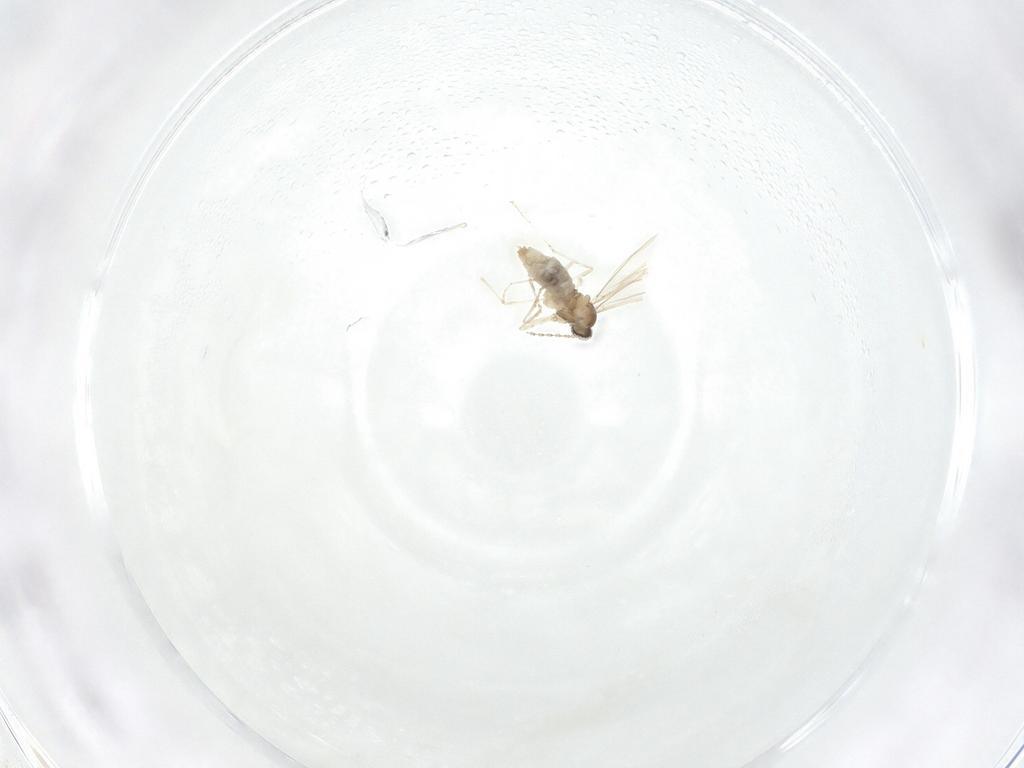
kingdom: Animalia
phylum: Arthropoda
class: Insecta
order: Diptera
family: Cecidomyiidae
